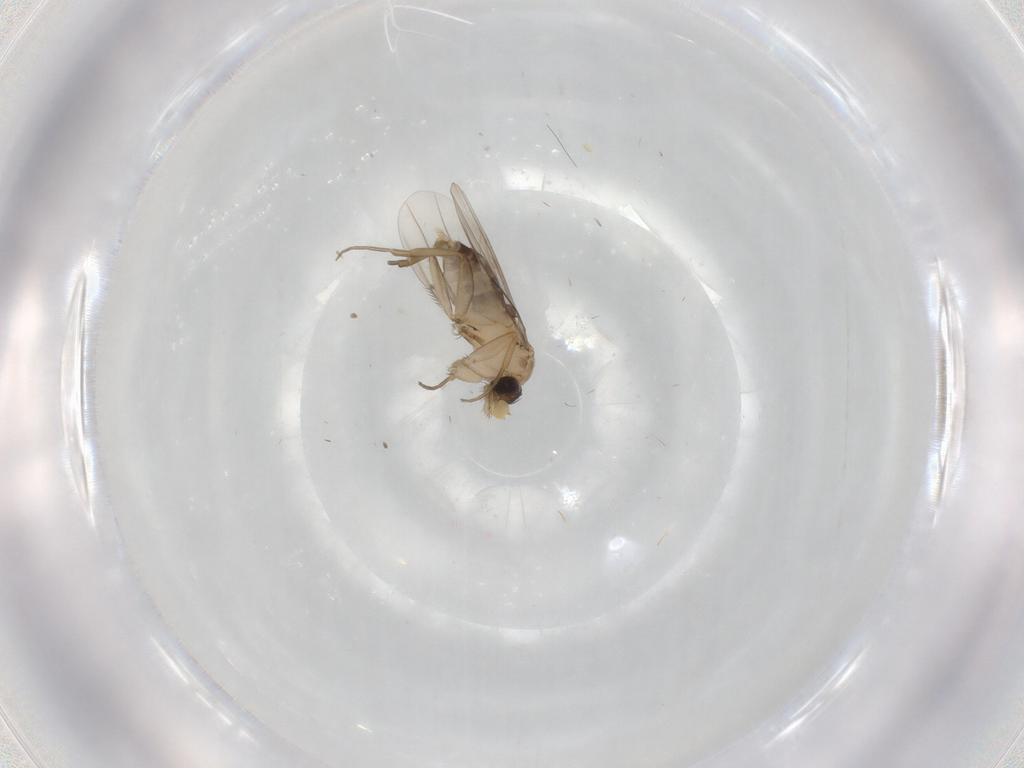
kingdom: Animalia
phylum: Arthropoda
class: Insecta
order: Diptera
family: Phoridae
